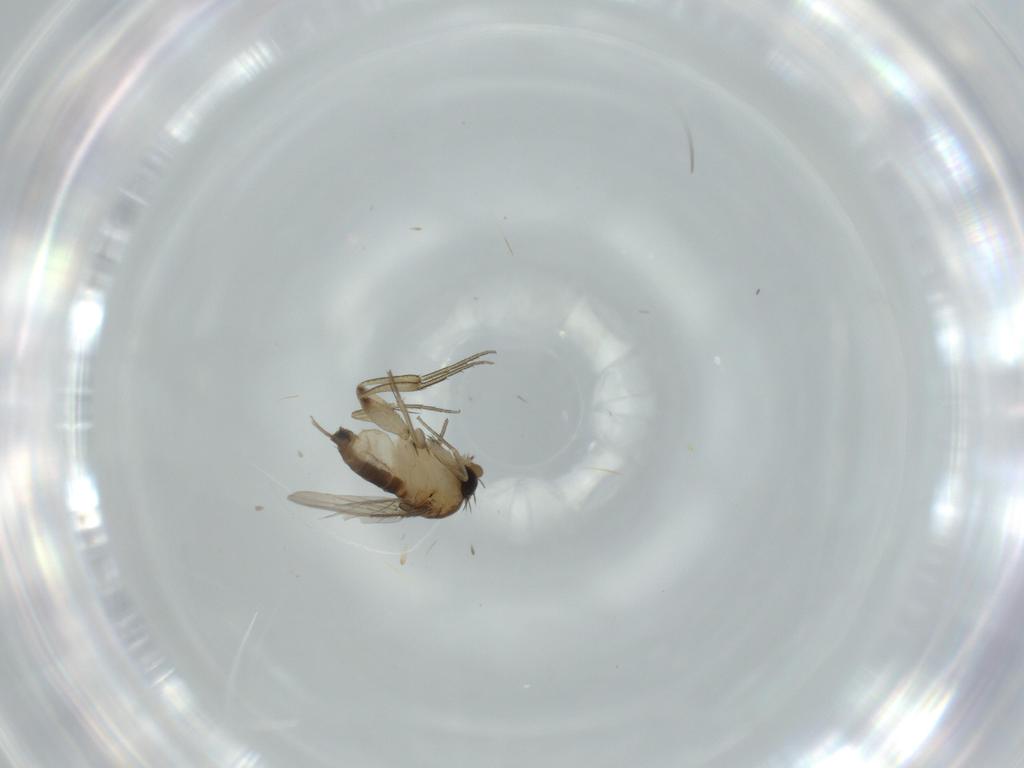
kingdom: Animalia
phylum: Arthropoda
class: Insecta
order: Diptera
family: Phoridae
